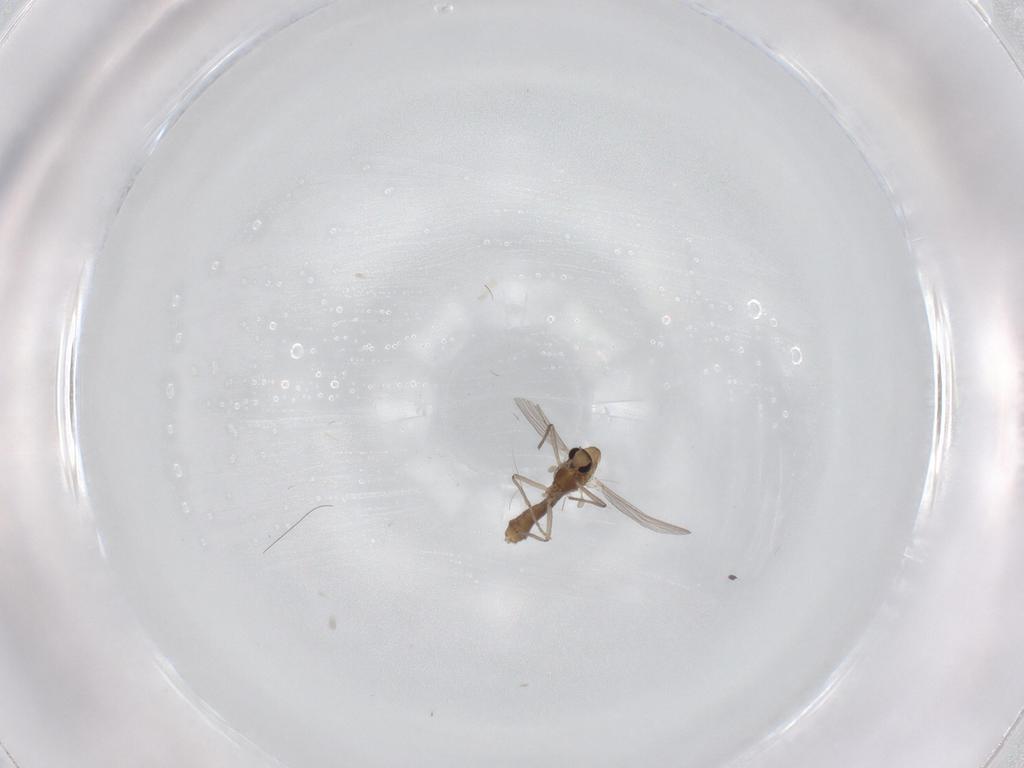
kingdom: Animalia
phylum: Arthropoda
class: Insecta
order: Diptera
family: Chironomidae
